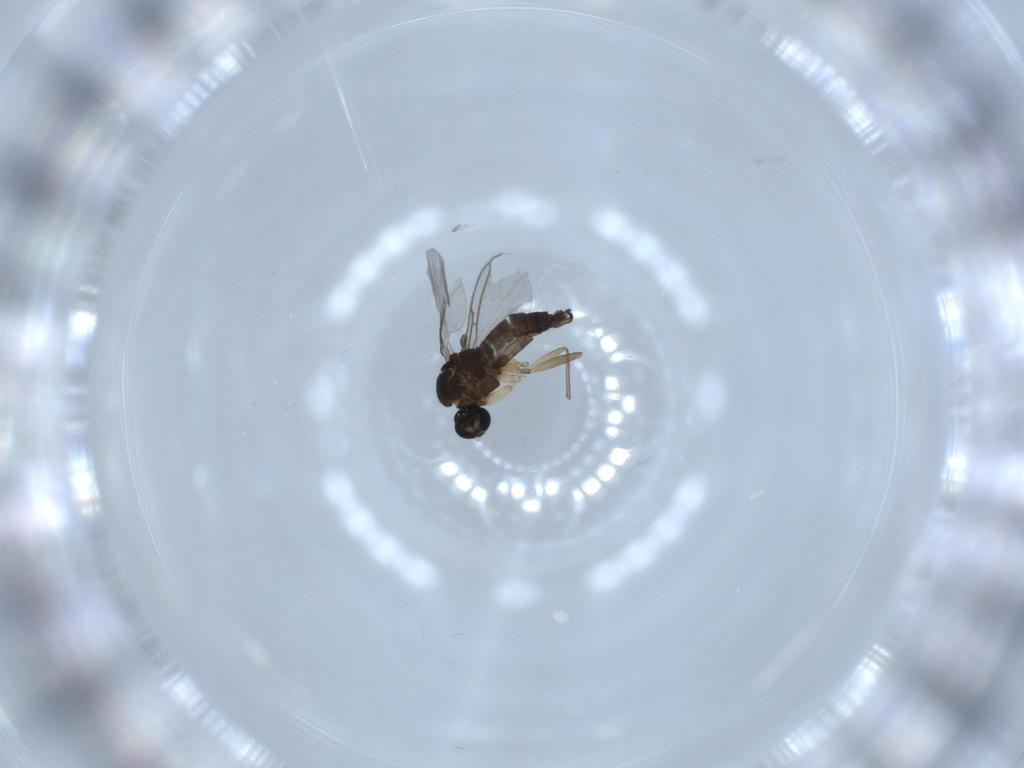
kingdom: Animalia
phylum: Arthropoda
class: Insecta
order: Diptera
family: Sciaridae
